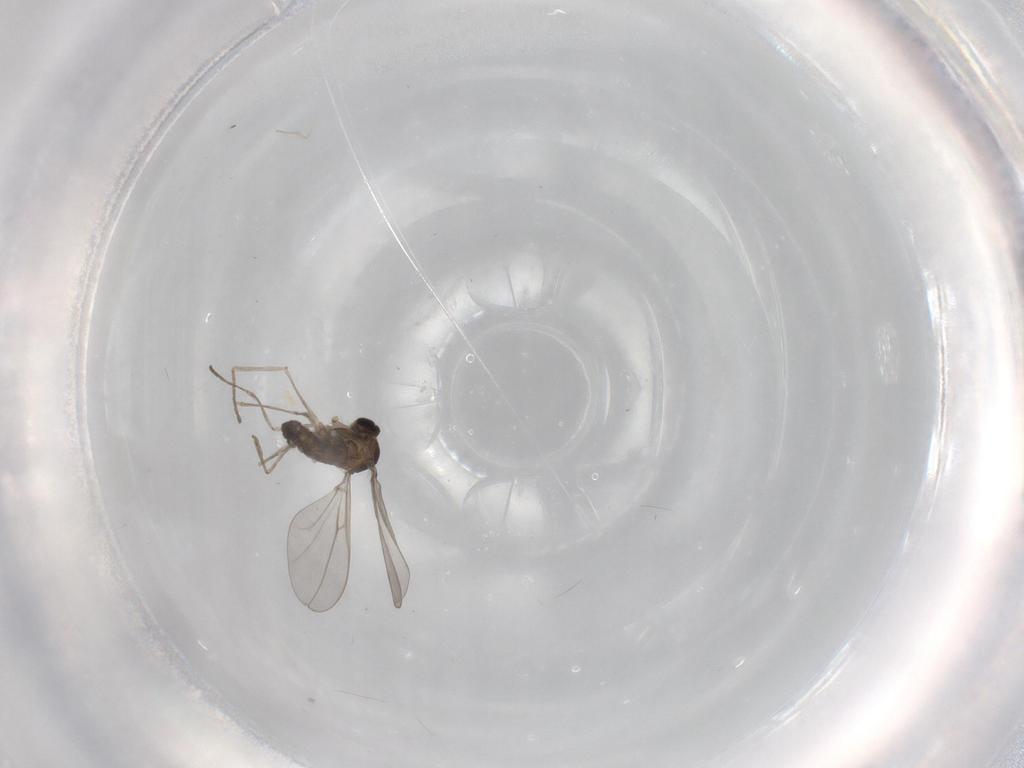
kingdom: Animalia
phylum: Arthropoda
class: Insecta
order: Diptera
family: Cecidomyiidae
